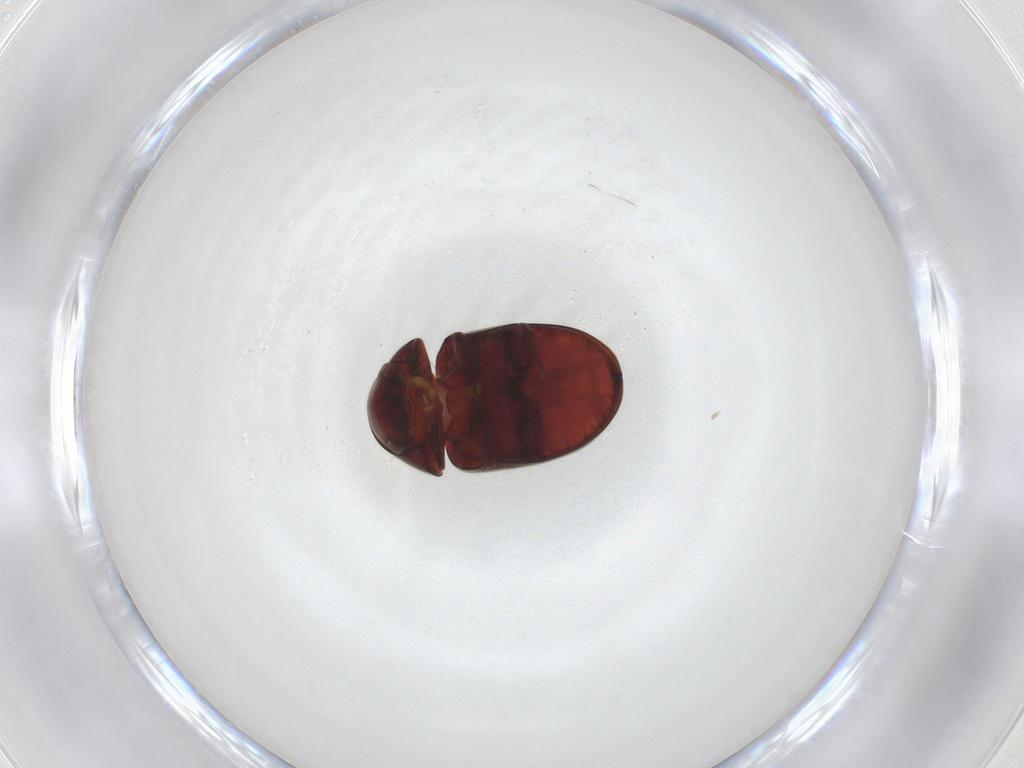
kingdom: Animalia
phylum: Arthropoda
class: Insecta
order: Coleoptera
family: Ptinidae
